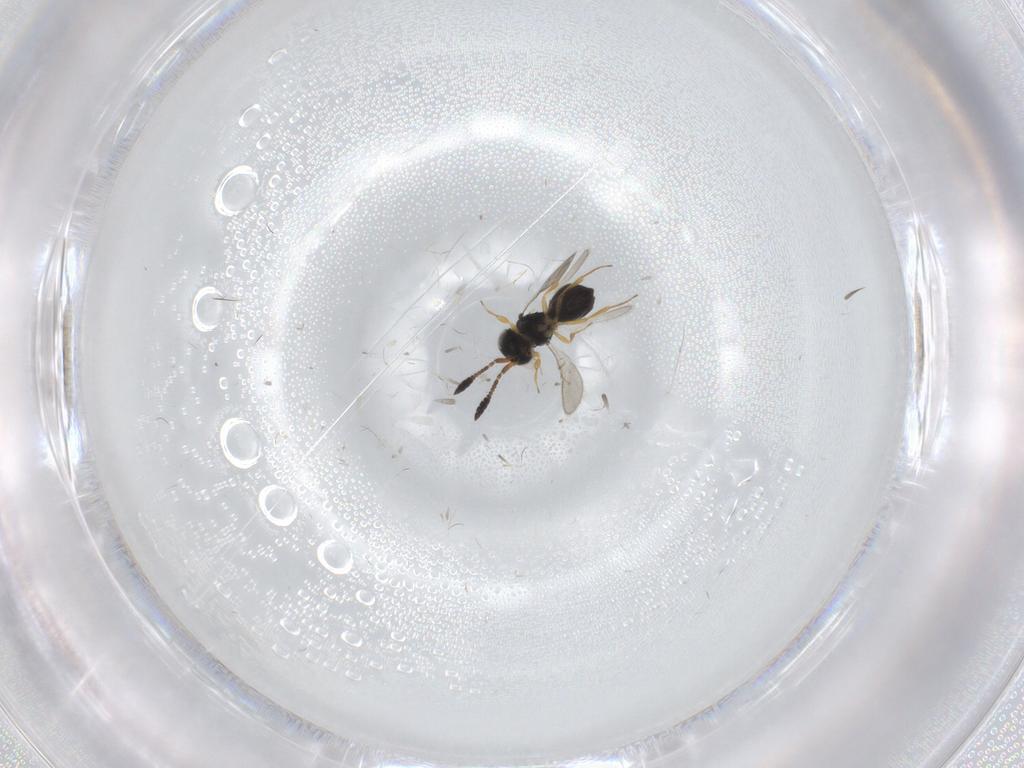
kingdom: Animalia
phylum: Arthropoda
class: Insecta
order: Hymenoptera
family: Scelionidae
